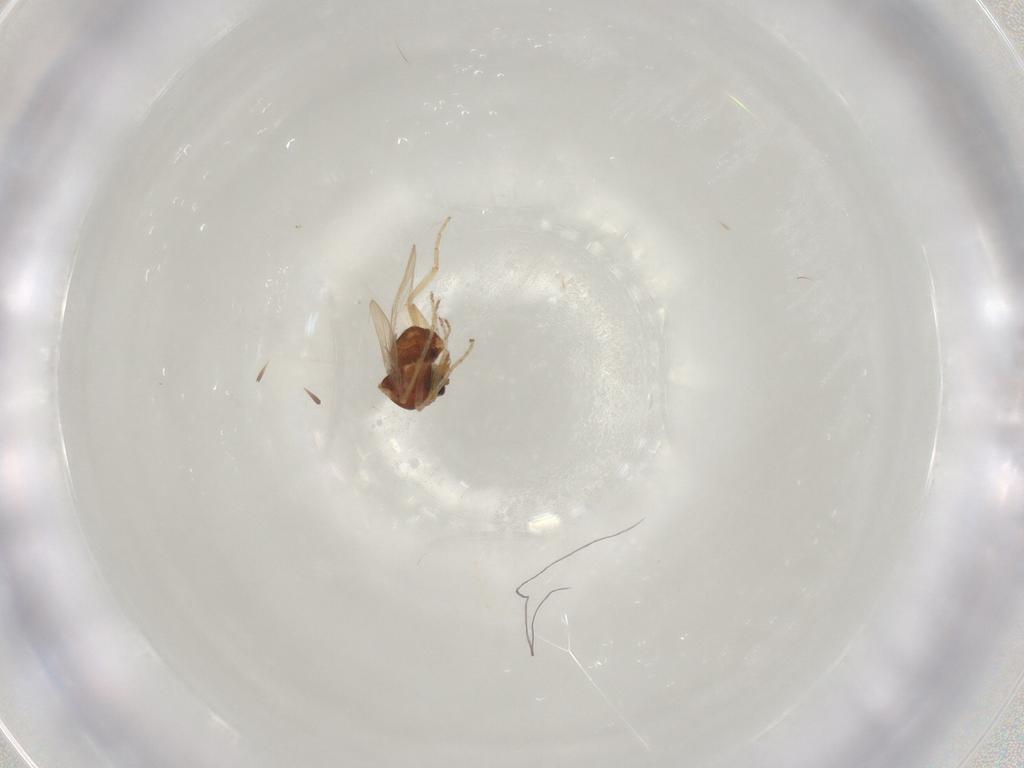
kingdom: Animalia
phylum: Arthropoda
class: Insecta
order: Diptera
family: Ceratopogonidae
